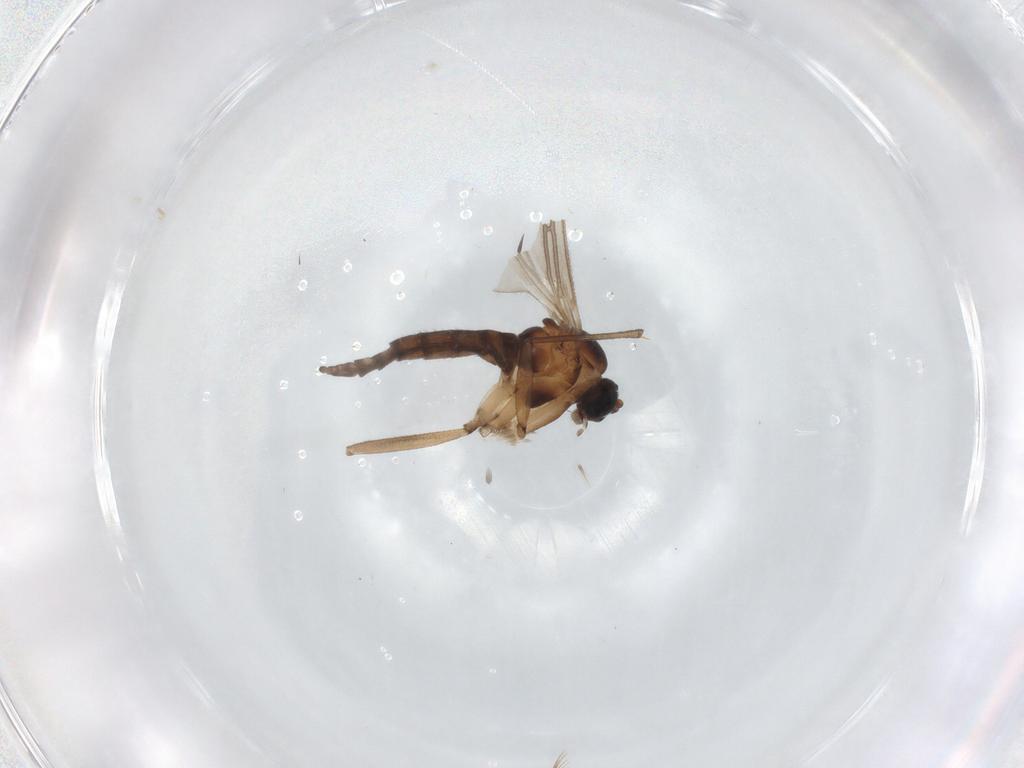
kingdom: Animalia
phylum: Arthropoda
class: Insecta
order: Diptera
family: Sciaridae
